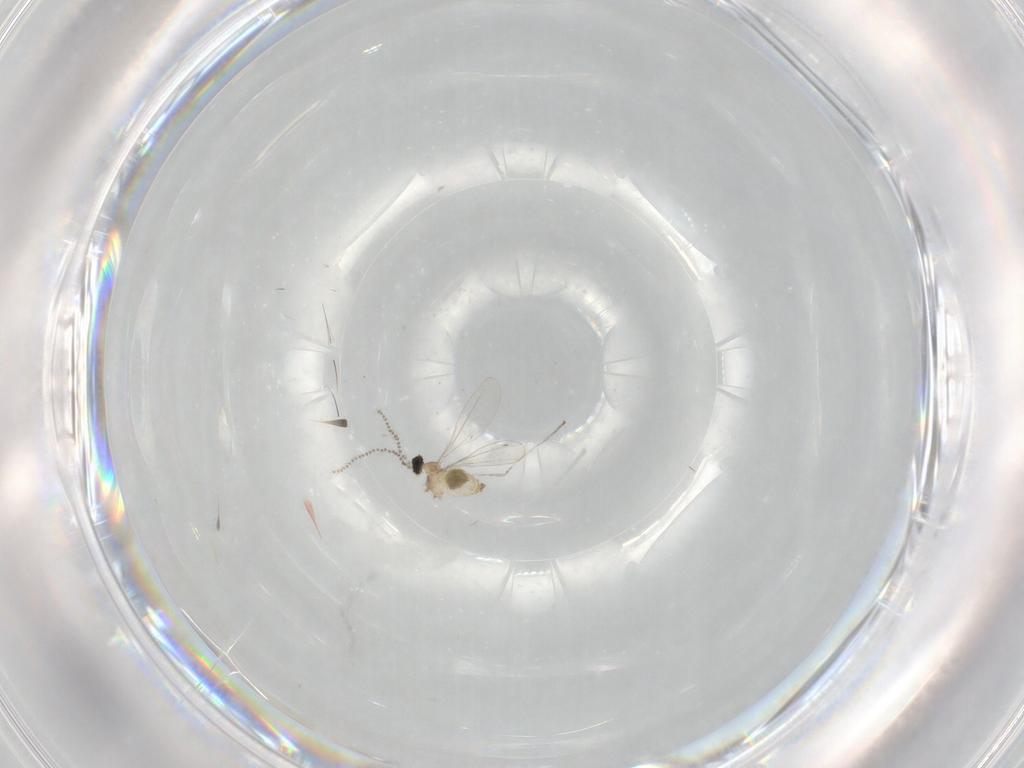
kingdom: Animalia
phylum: Arthropoda
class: Insecta
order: Diptera
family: Cecidomyiidae
